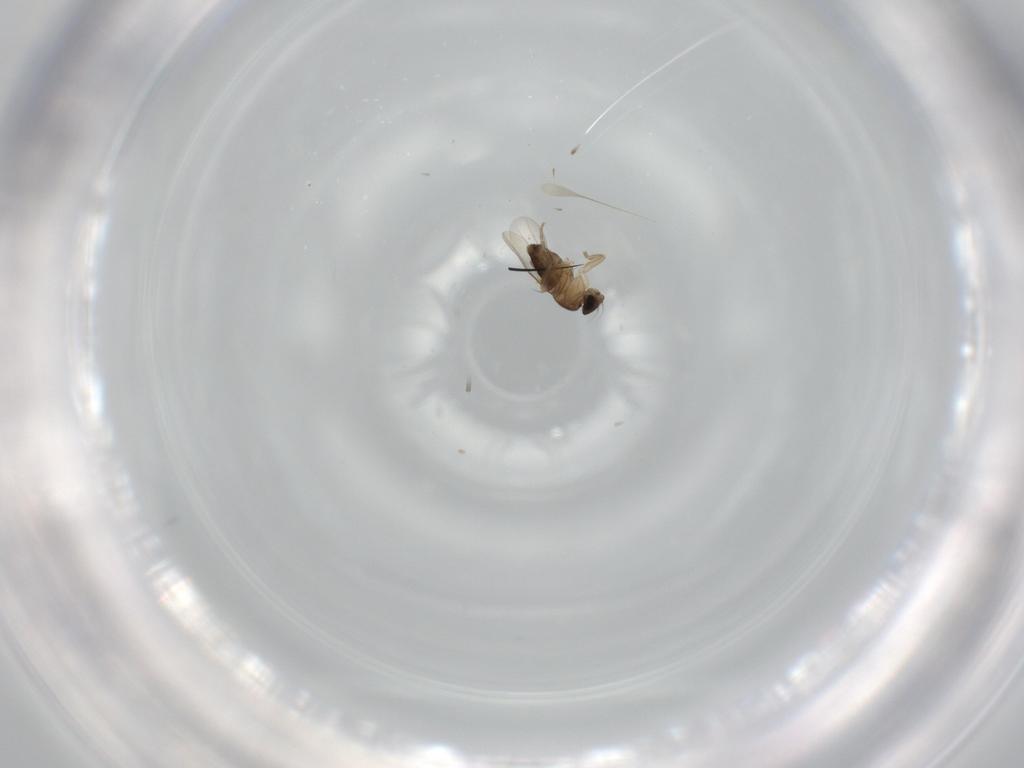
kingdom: Animalia
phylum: Arthropoda
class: Insecta
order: Diptera
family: Phoridae
